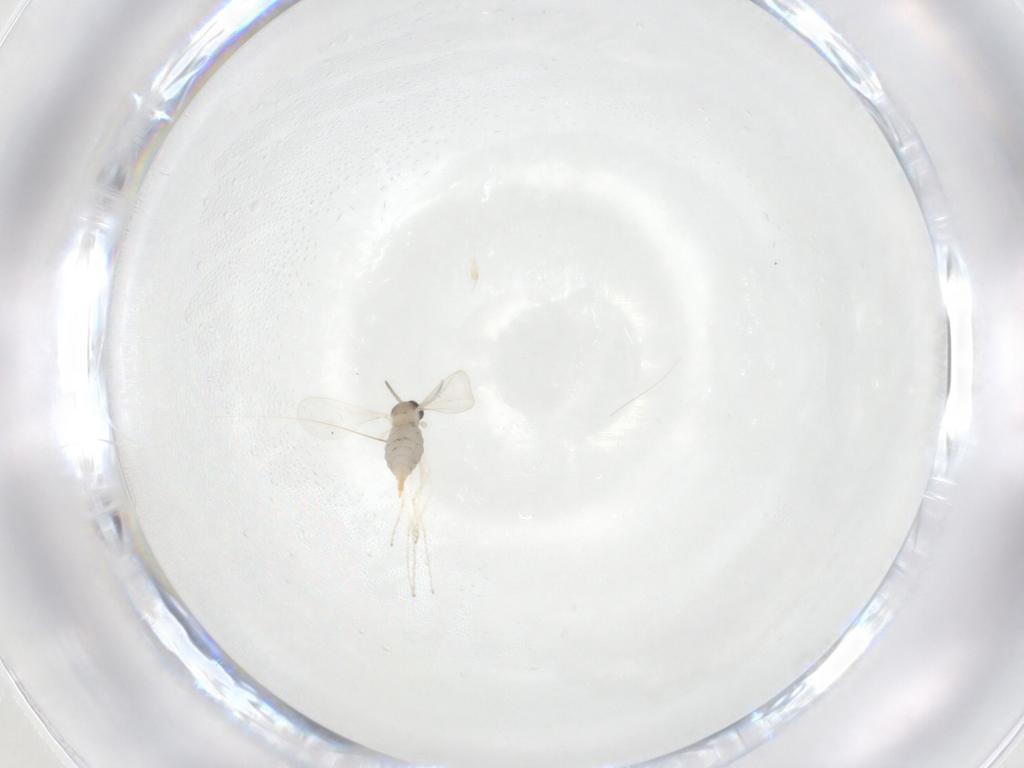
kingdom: Animalia
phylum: Arthropoda
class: Insecta
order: Diptera
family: Cecidomyiidae
